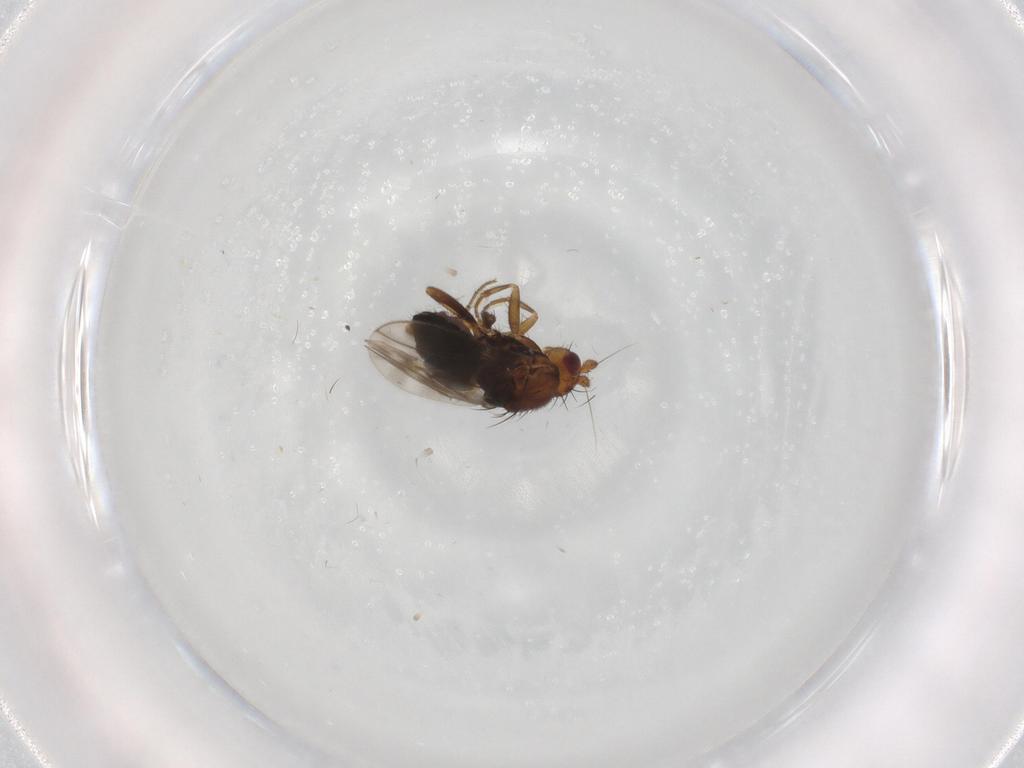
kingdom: Animalia
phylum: Arthropoda
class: Insecta
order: Diptera
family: Sphaeroceridae
